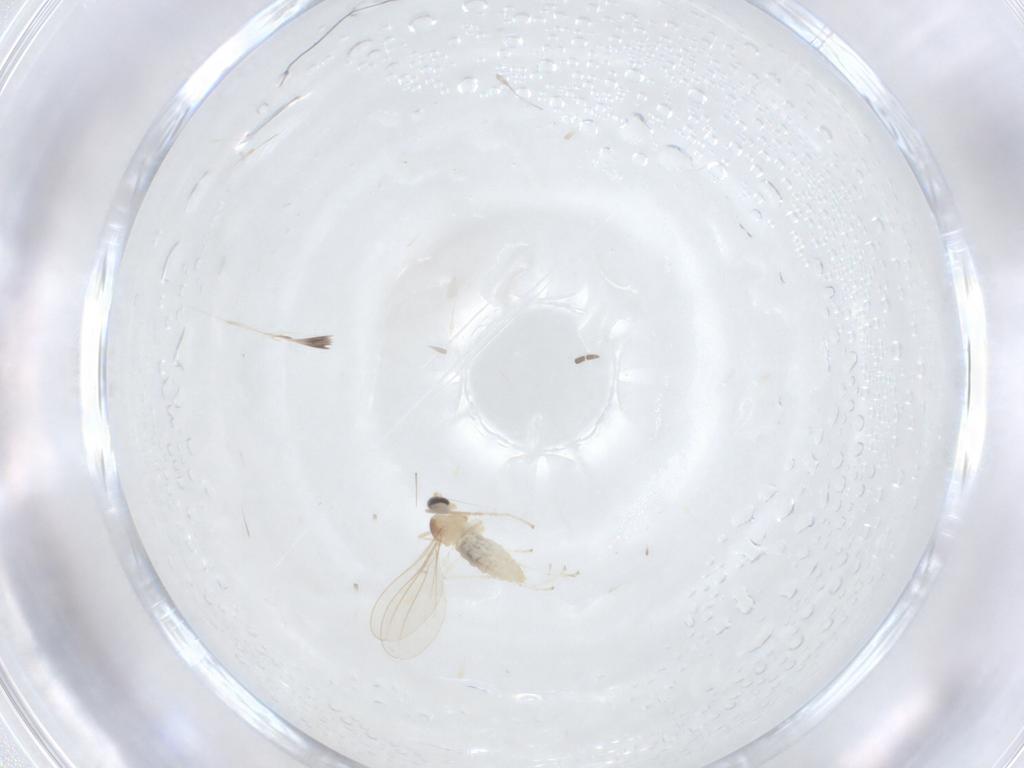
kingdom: Animalia
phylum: Arthropoda
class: Insecta
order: Diptera
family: Cecidomyiidae
